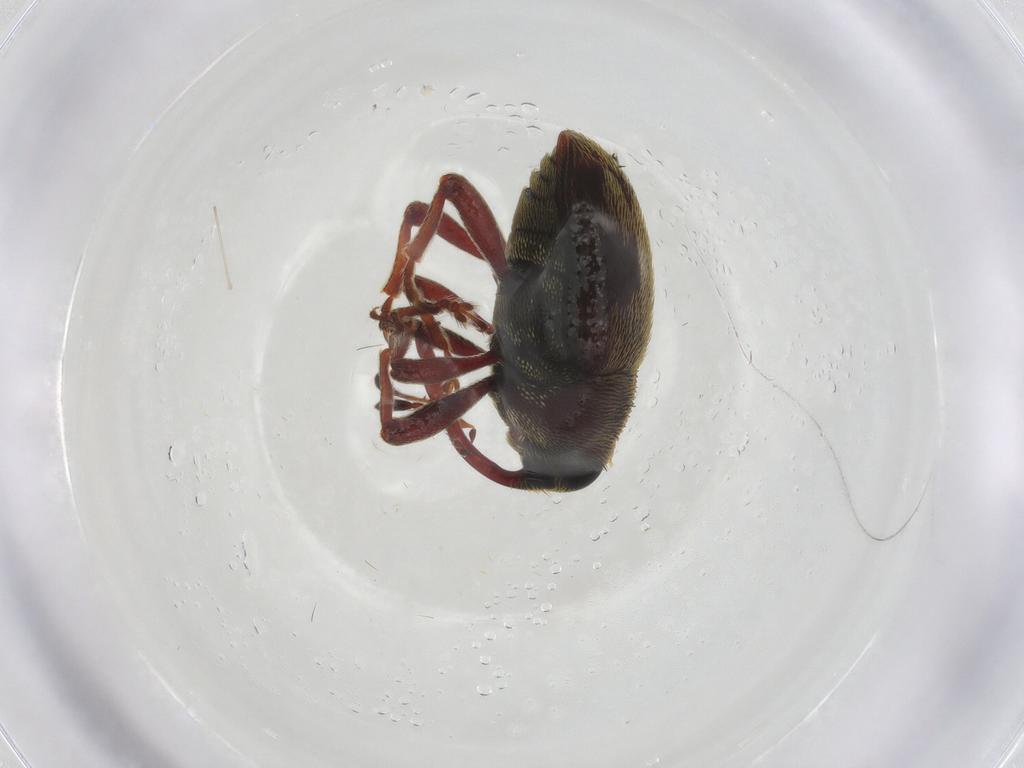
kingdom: Animalia
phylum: Arthropoda
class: Insecta
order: Coleoptera
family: Scarabaeidae
